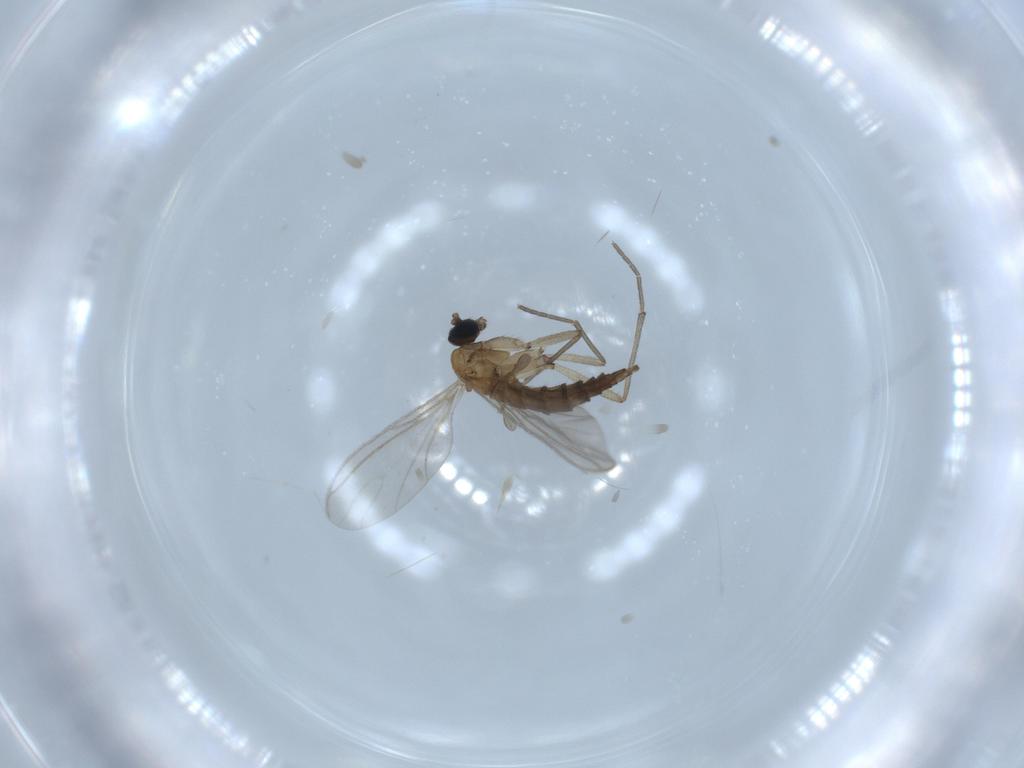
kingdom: Animalia
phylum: Arthropoda
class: Insecta
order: Diptera
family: Sciaridae
